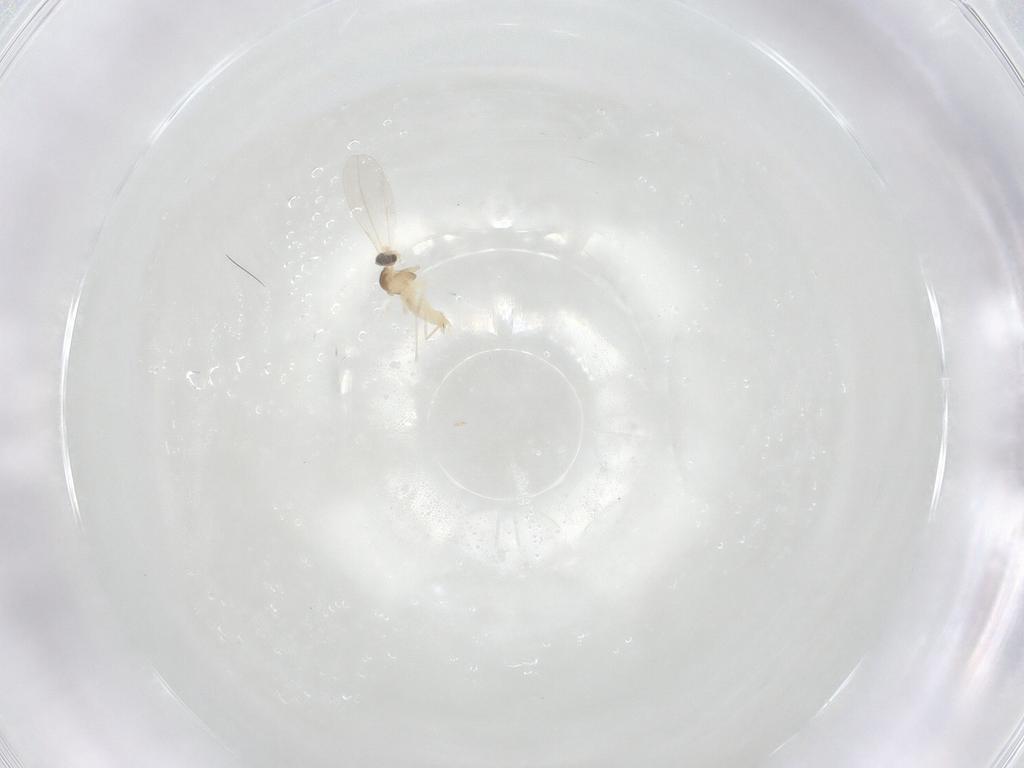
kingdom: Animalia
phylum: Arthropoda
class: Insecta
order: Diptera
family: Cecidomyiidae
